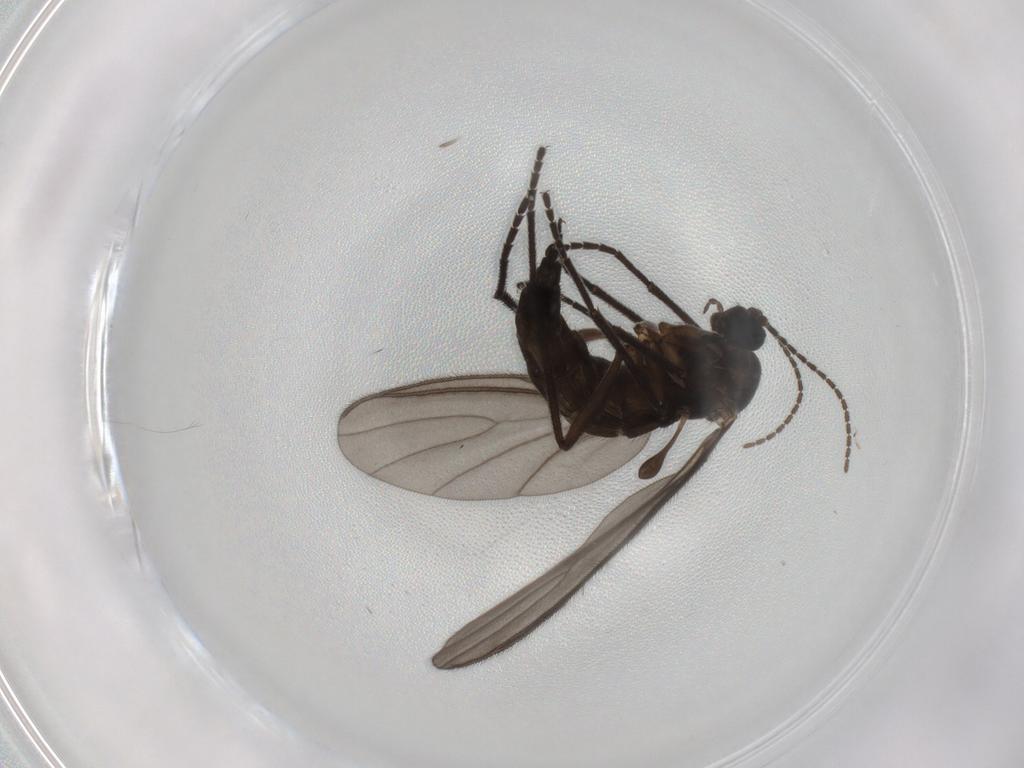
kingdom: Animalia
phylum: Arthropoda
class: Insecta
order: Diptera
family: Sciaridae
